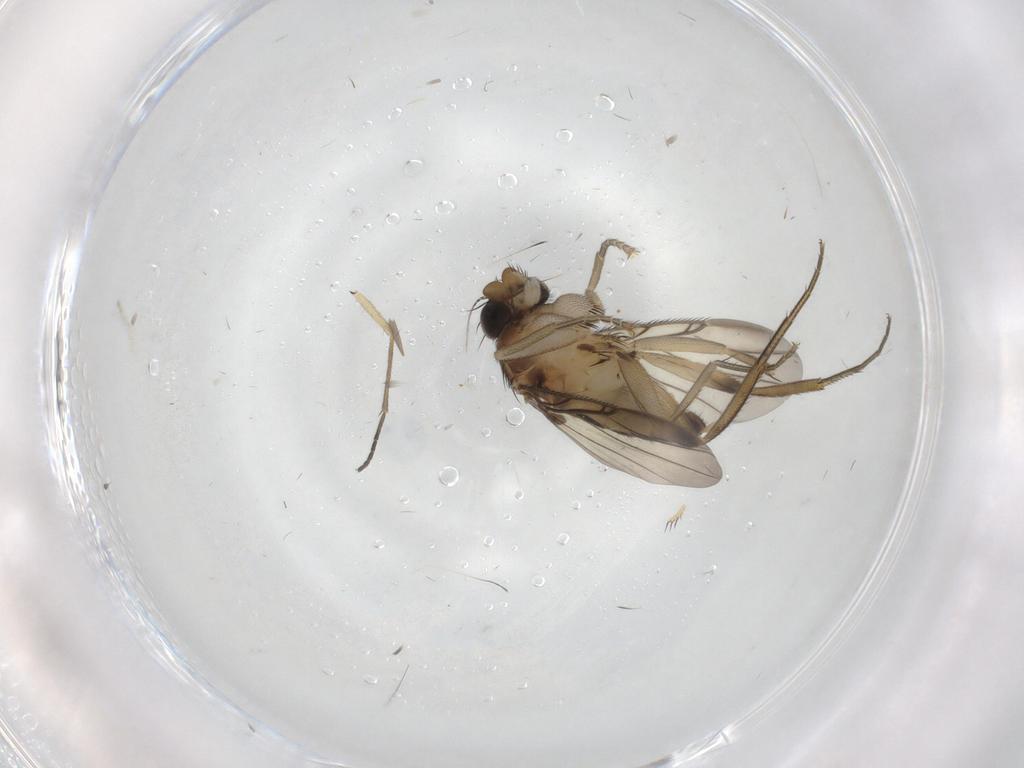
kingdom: Animalia
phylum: Arthropoda
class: Insecta
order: Diptera
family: Phoridae
